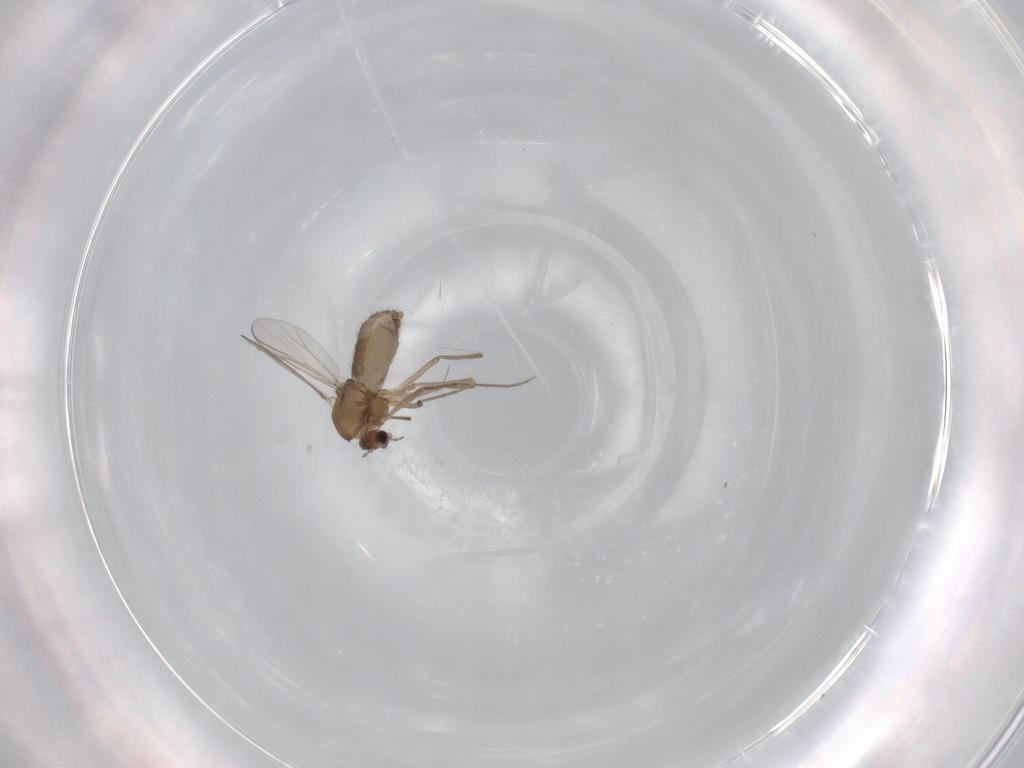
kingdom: Animalia
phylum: Arthropoda
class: Insecta
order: Diptera
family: Chironomidae
